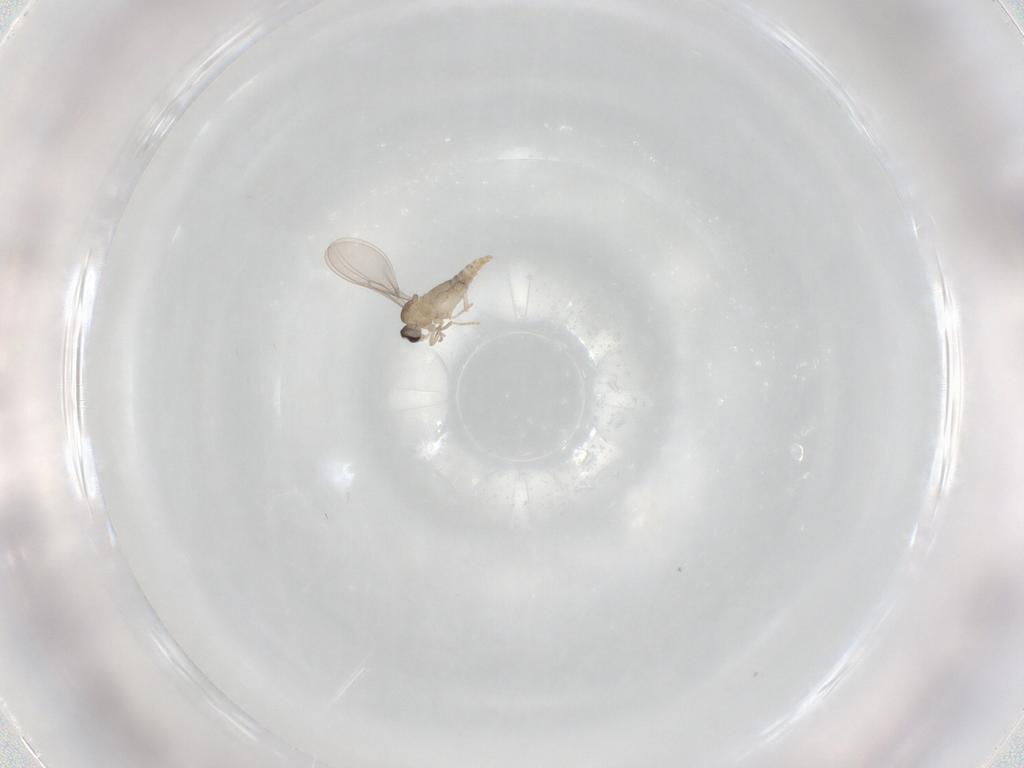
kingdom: Animalia
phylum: Arthropoda
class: Insecta
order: Diptera
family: Cecidomyiidae
